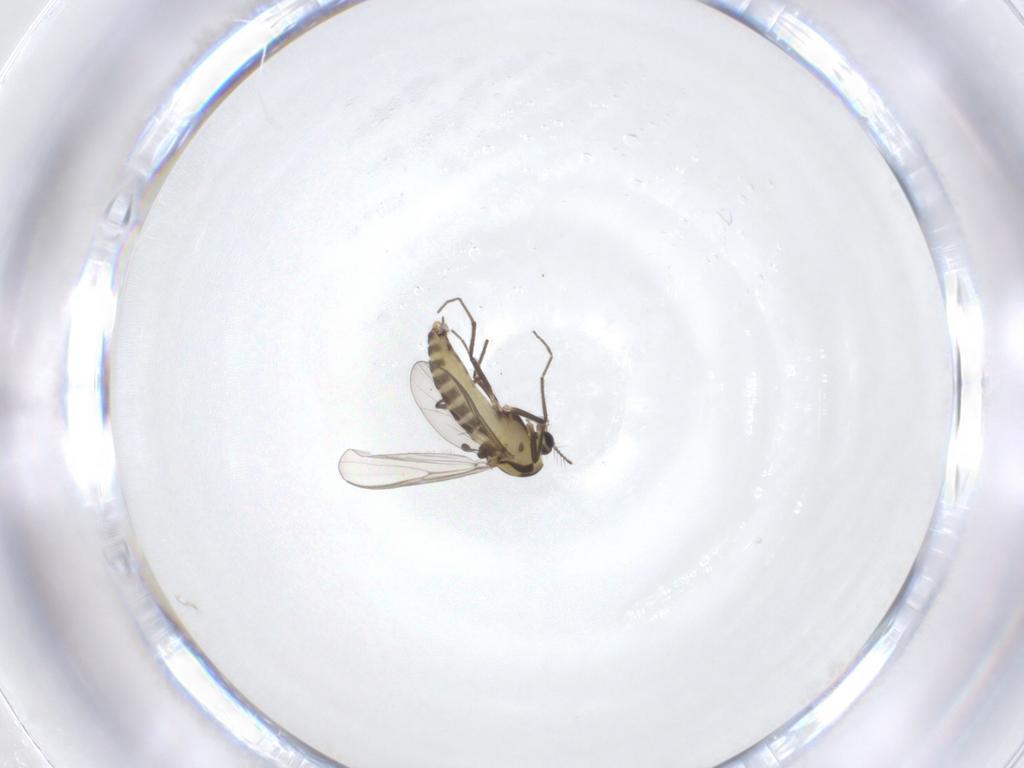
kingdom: Animalia
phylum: Arthropoda
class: Insecta
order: Diptera
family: Chironomidae
